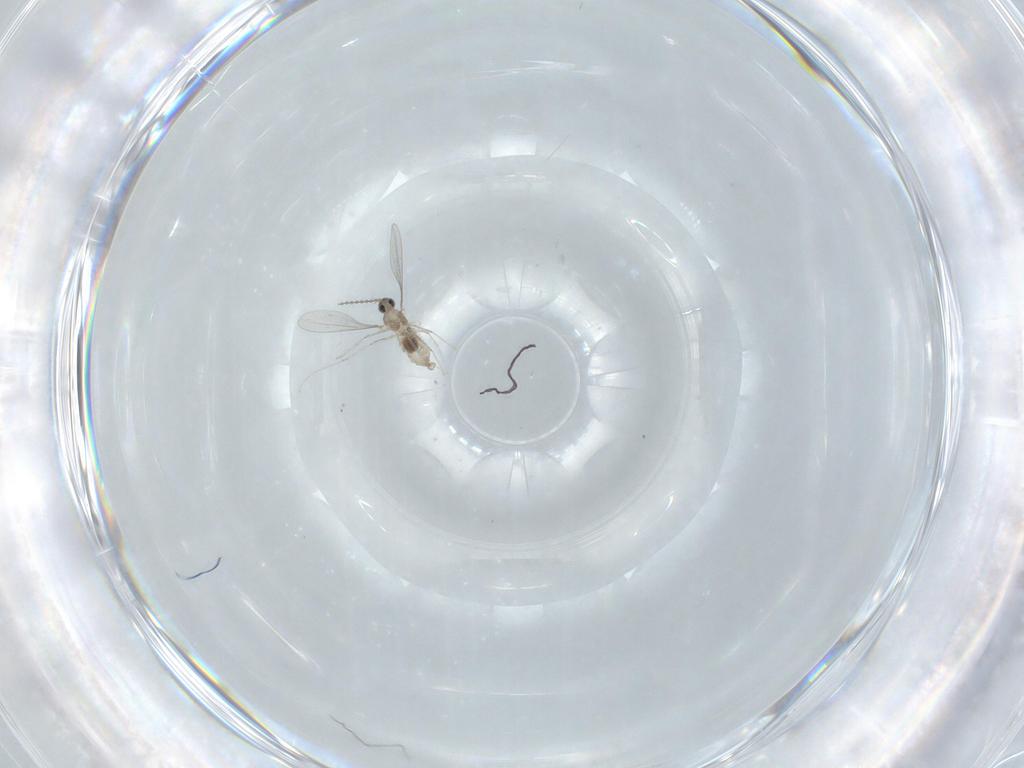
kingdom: Animalia
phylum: Arthropoda
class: Insecta
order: Diptera
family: Cecidomyiidae
